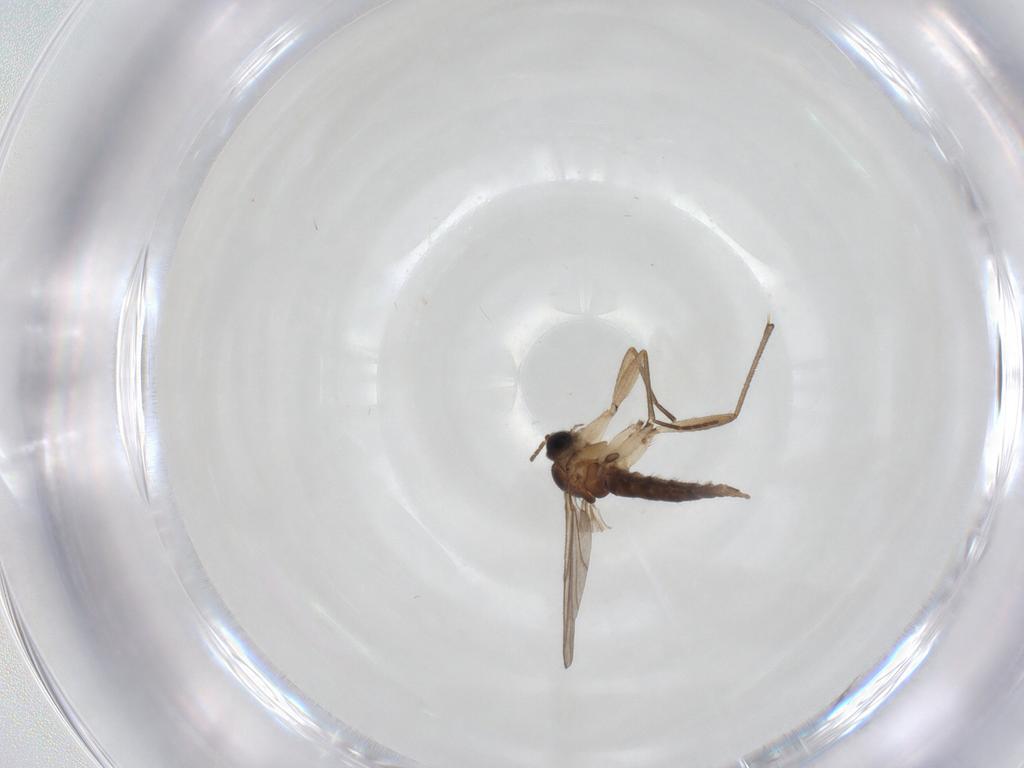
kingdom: Animalia
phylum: Arthropoda
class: Insecta
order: Diptera
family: Sciaridae
